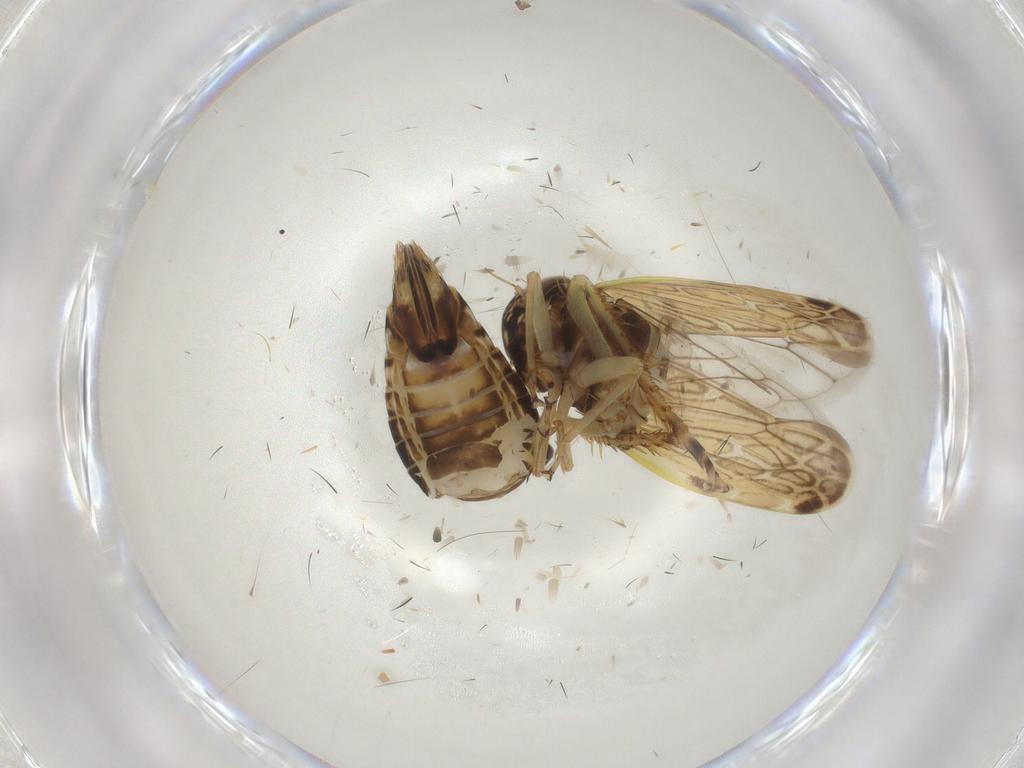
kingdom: Animalia
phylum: Arthropoda
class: Insecta
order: Hemiptera
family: Cicadellidae
